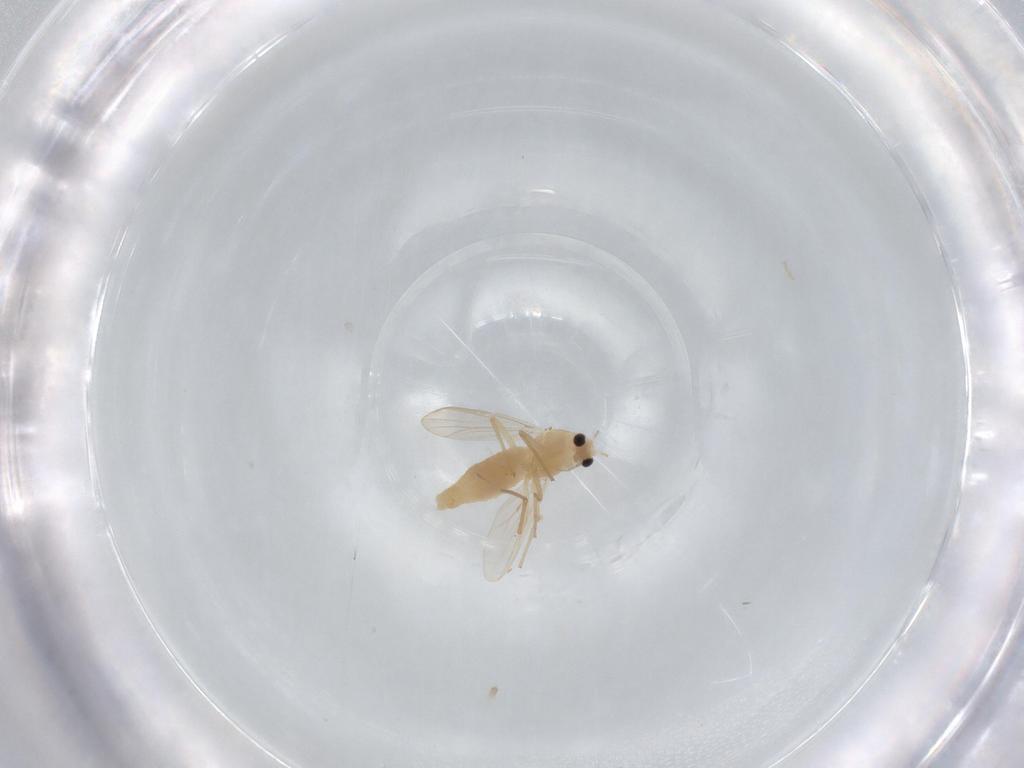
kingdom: Animalia
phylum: Arthropoda
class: Insecta
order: Diptera
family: Chironomidae
